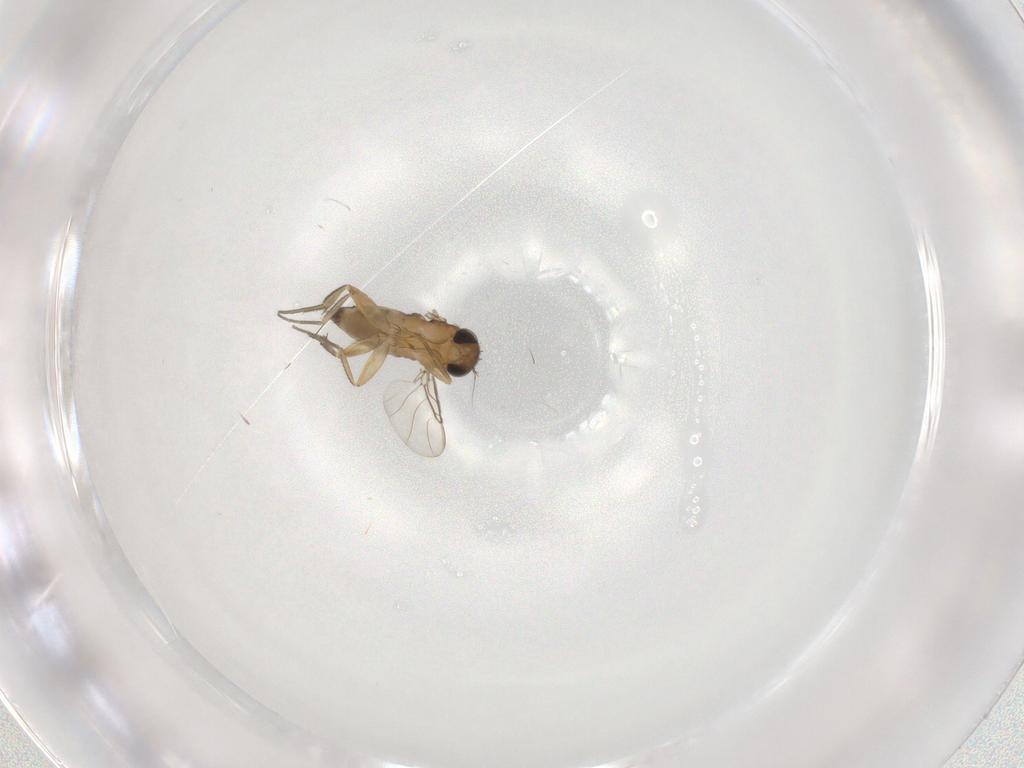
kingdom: Animalia
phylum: Arthropoda
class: Insecta
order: Diptera
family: Phoridae
